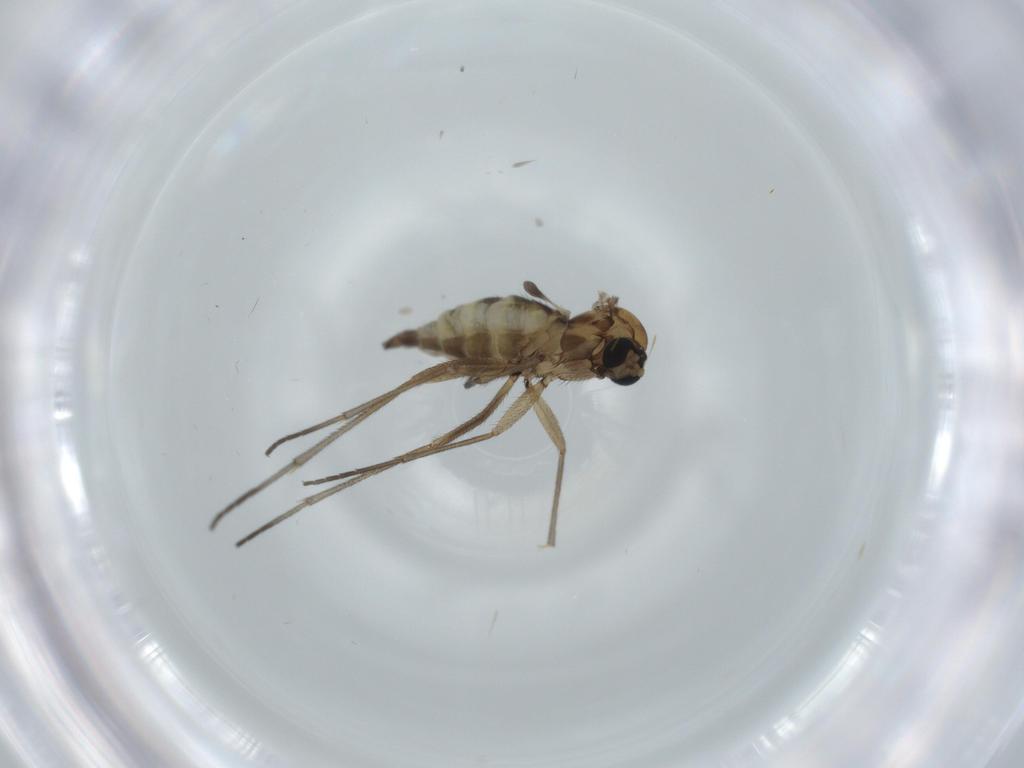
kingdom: Animalia
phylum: Arthropoda
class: Insecta
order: Diptera
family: Sciaridae
